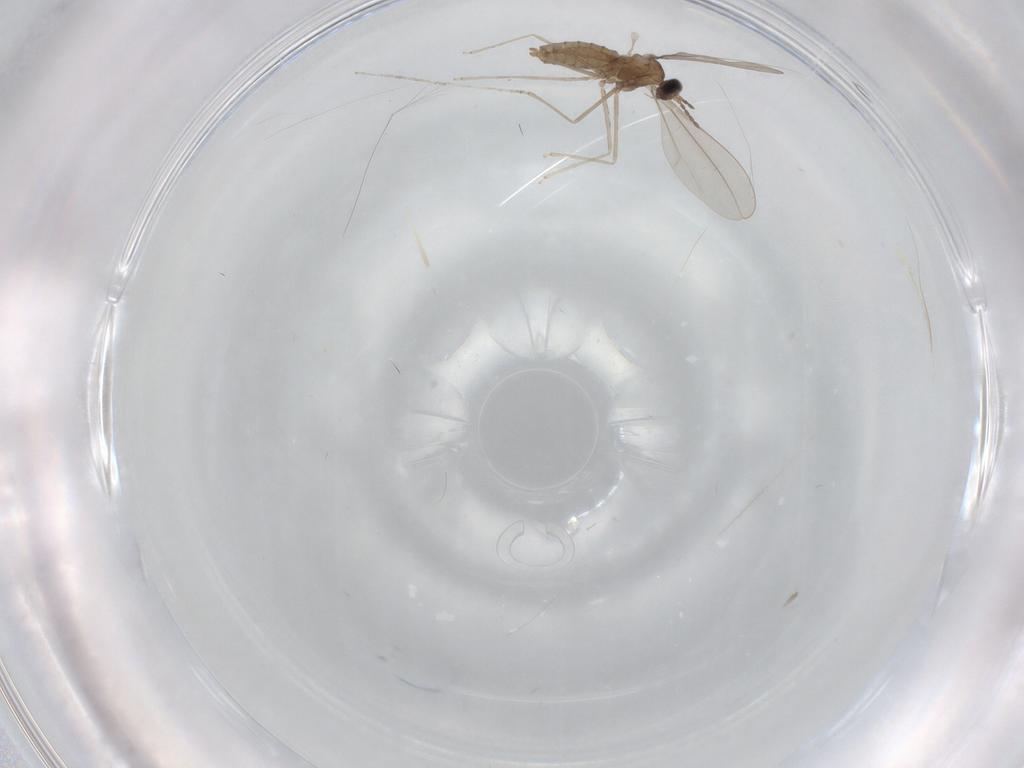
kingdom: Animalia
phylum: Arthropoda
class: Insecta
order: Diptera
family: Cecidomyiidae
